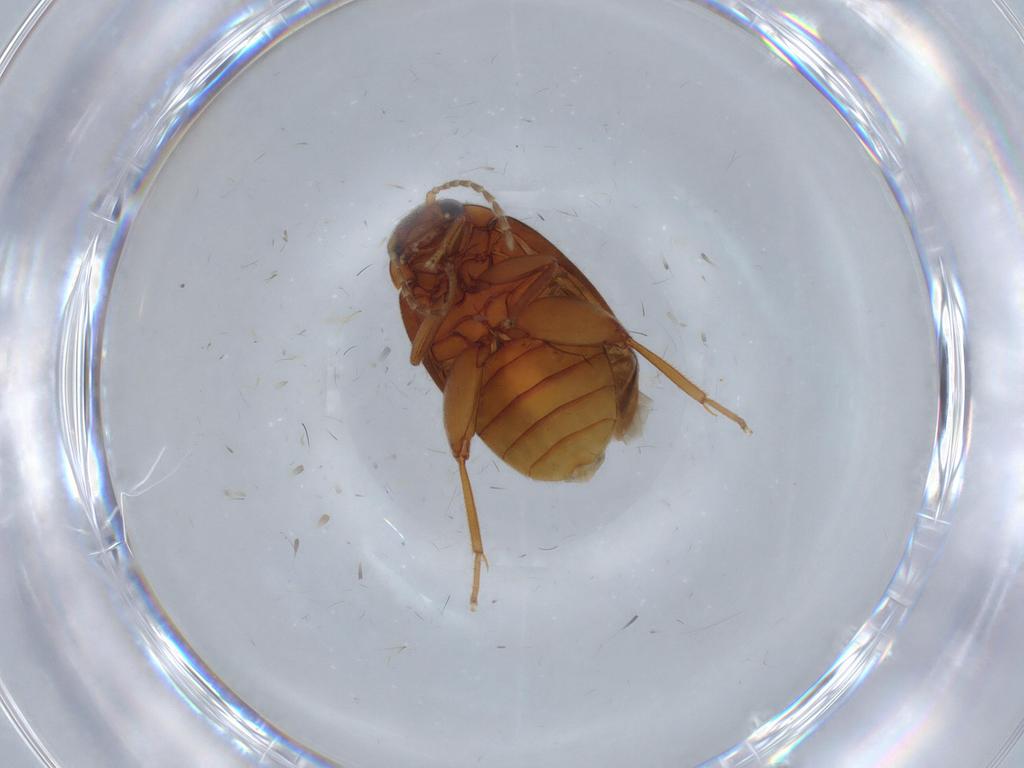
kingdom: Animalia
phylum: Arthropoda
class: Insecta
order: Coleoptera
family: Scirtidae
